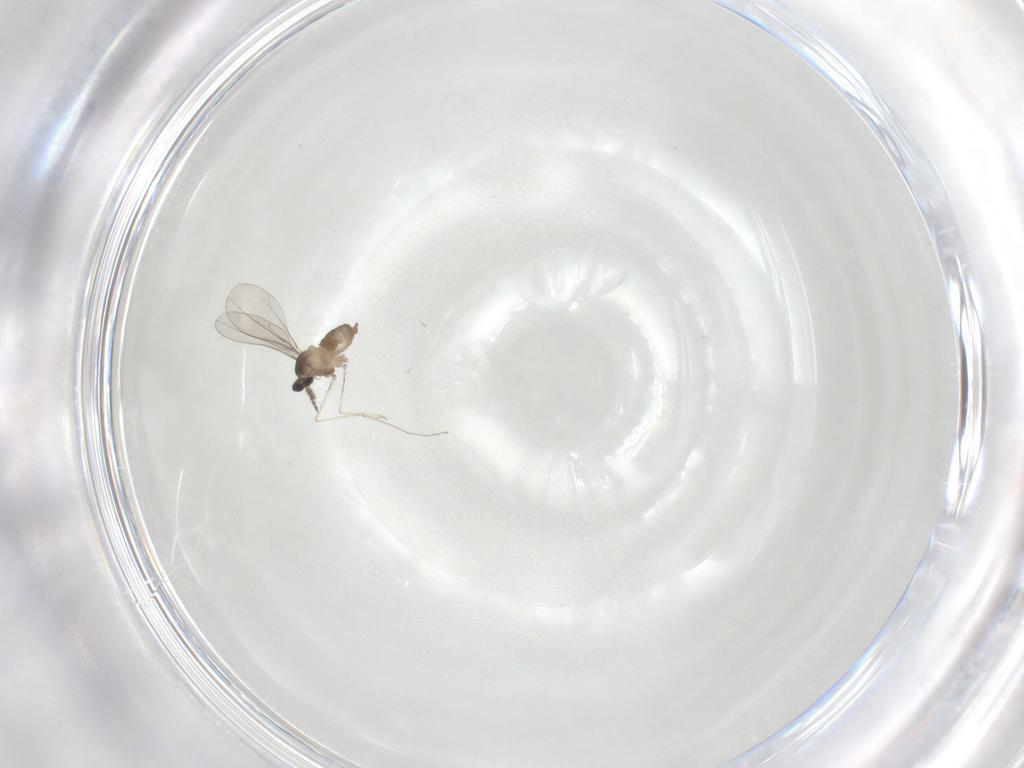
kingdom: Animalia
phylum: Arthropoda
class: Insecta
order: Diptera
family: Cecidomyiidae
